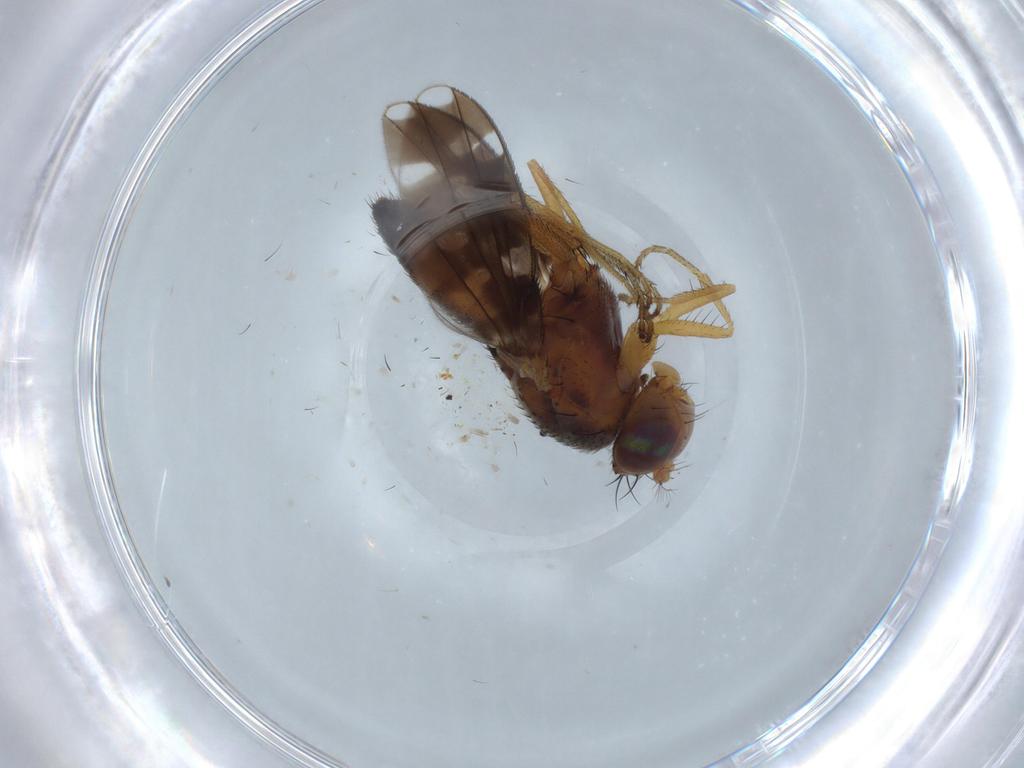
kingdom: Animalia
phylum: Arthropoda
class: Insecta
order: Diptera
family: Ephydridae
